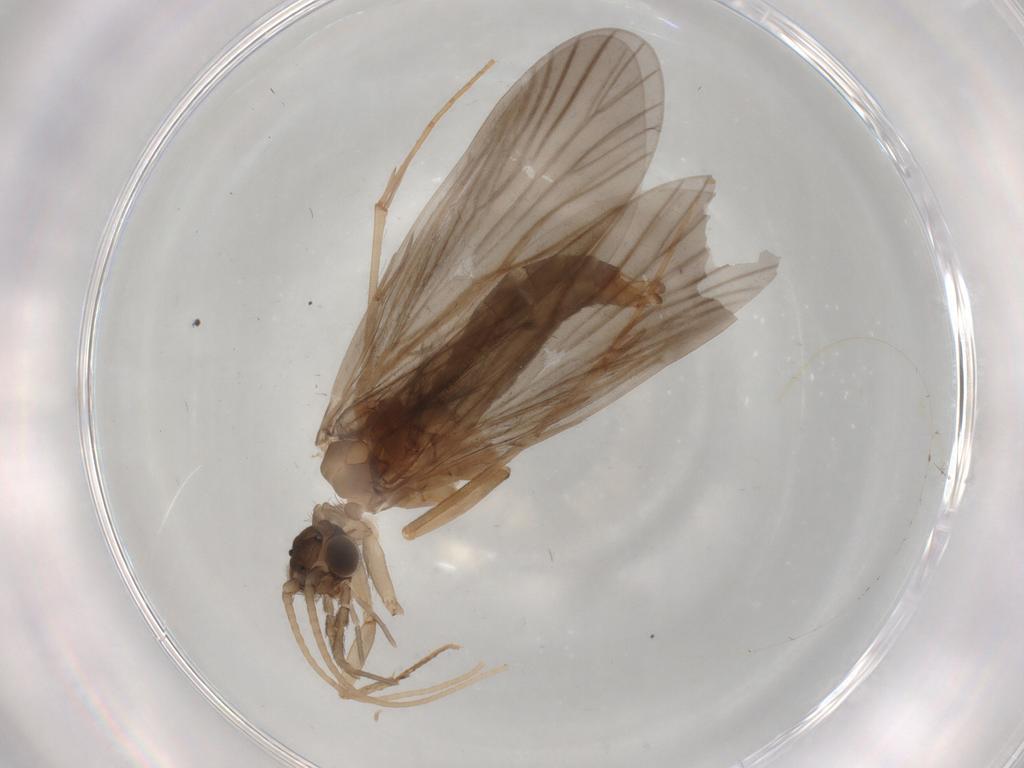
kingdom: Animalia
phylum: Arthropoda
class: Insecta
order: Trichoptera
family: Philopotamidae
